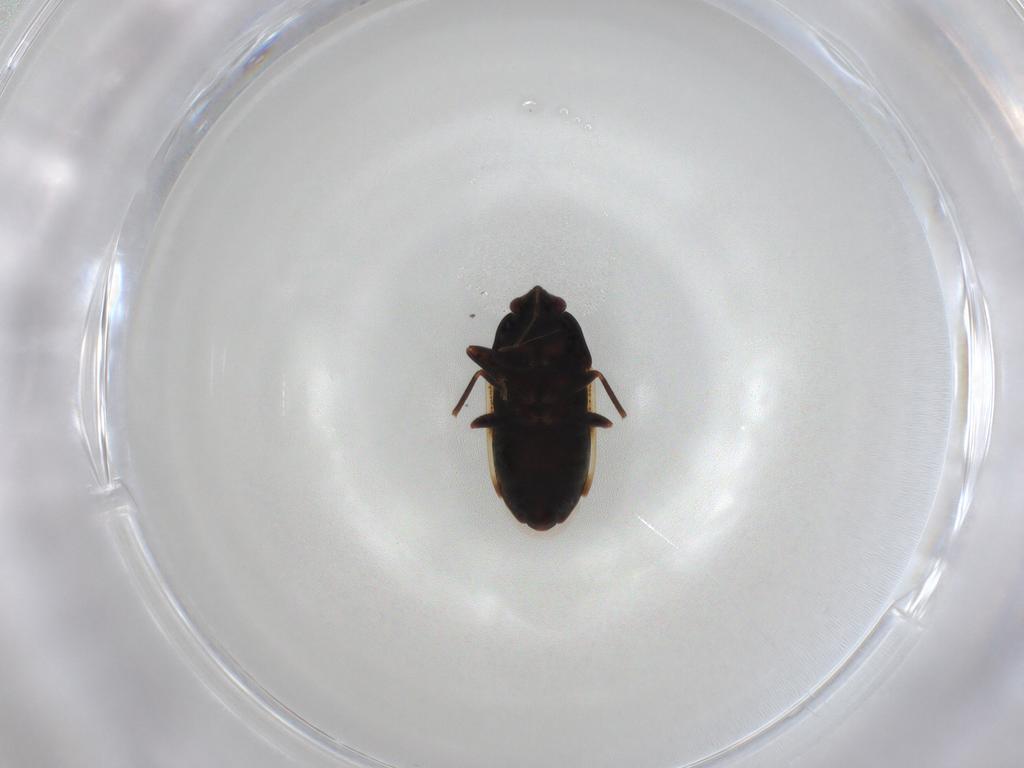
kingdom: Animalia
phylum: Arthropoda
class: Insecta
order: Hemiptera
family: Rhyparochromidae
